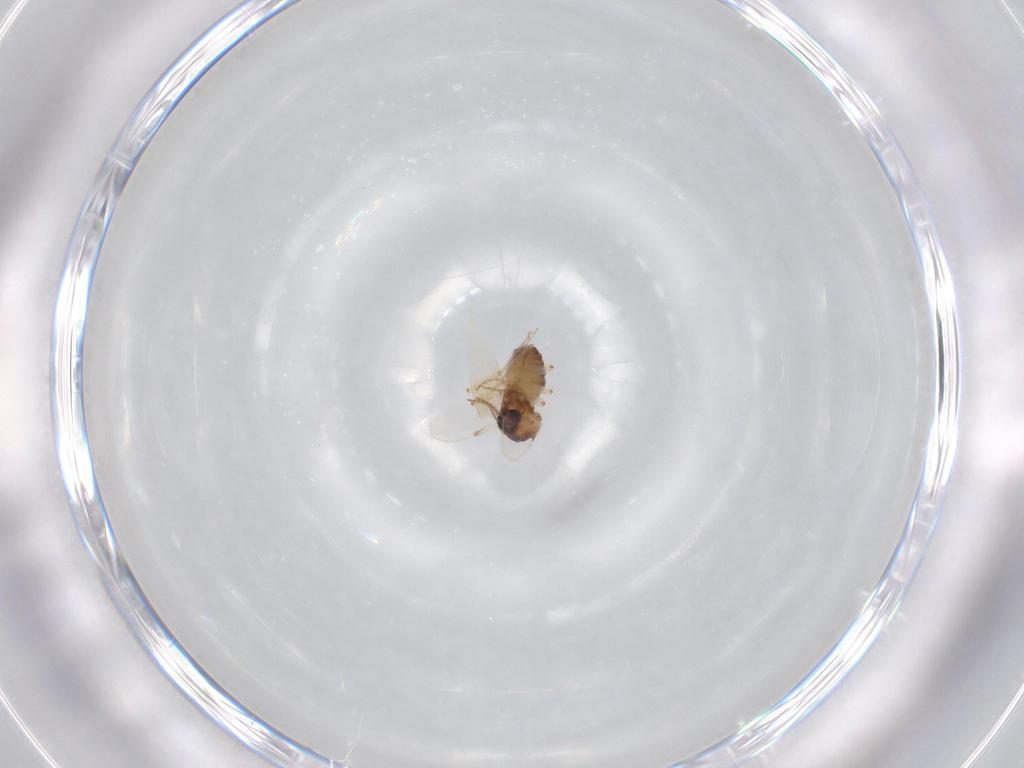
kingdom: Animalia
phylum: Arthropoda
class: Insecta
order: Diptera
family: Ceratopogonidae
